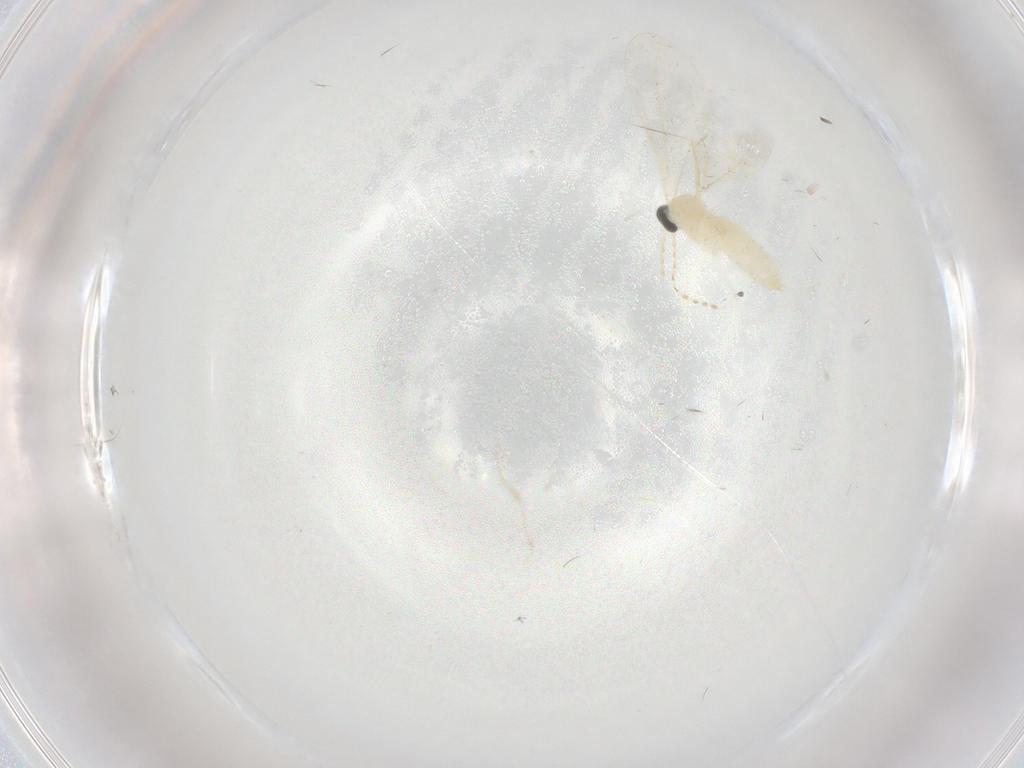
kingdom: Animalia
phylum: Arthropoda
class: Insecta
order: Diptera
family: Cecidomyiidae
